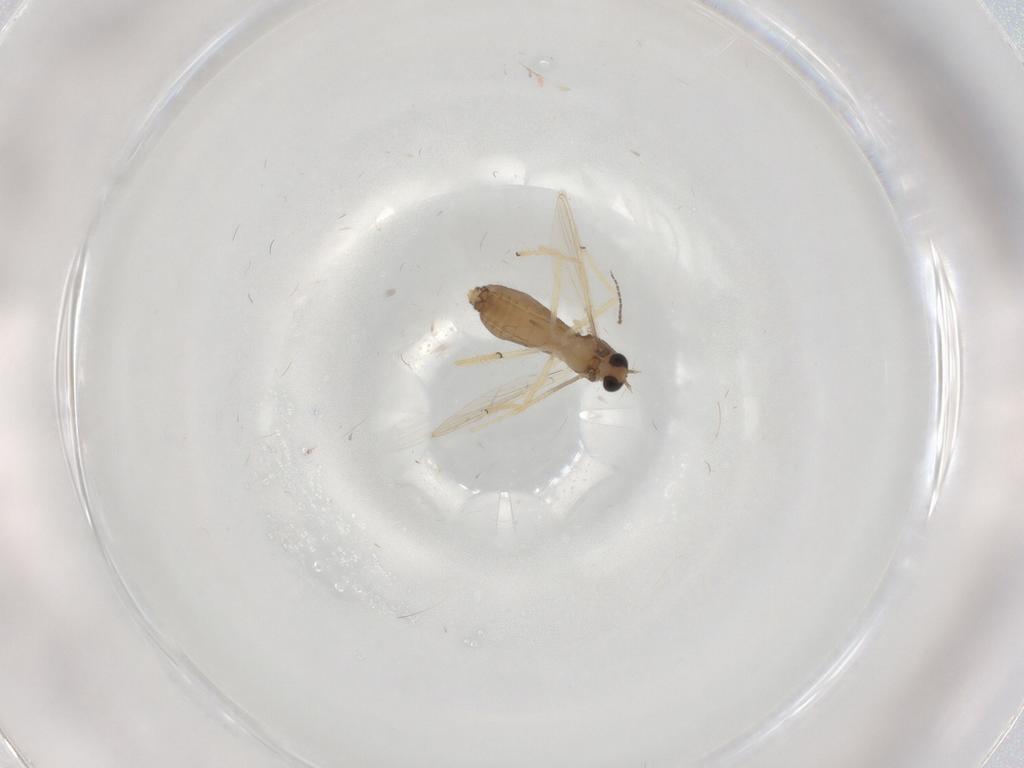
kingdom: Animalia
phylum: Arthropoda
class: Insecta
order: Diptera
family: Chironomidae
